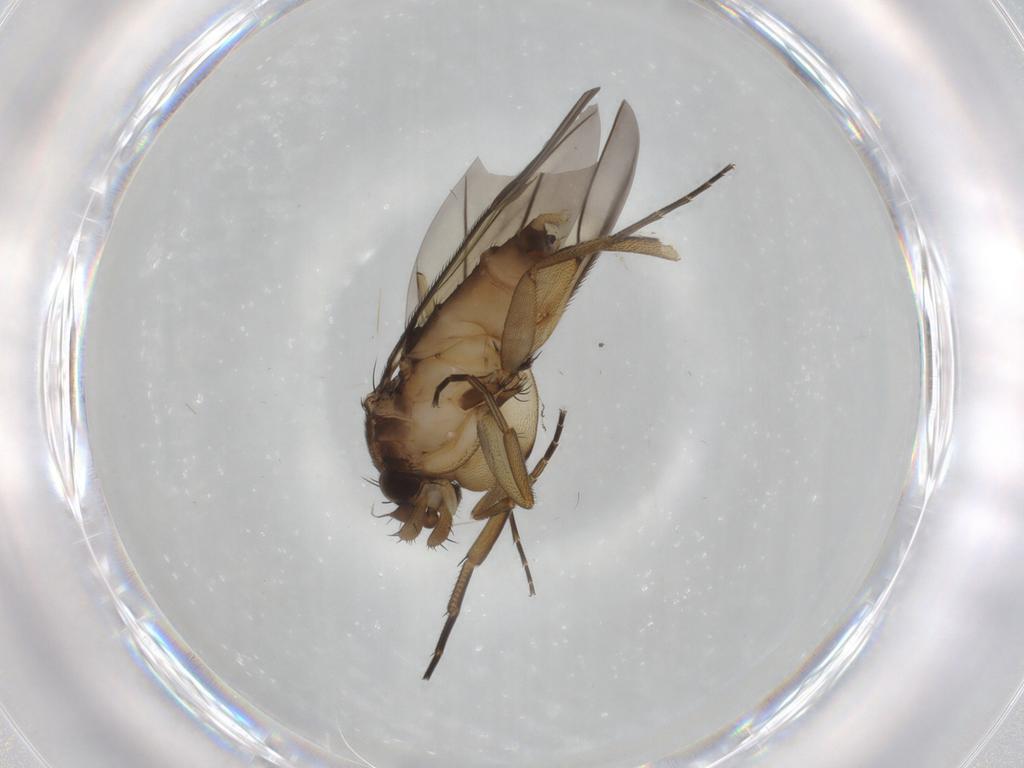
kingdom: Animalia
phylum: Arthropoda
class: Insecta
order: Diptera
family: Phoridae
